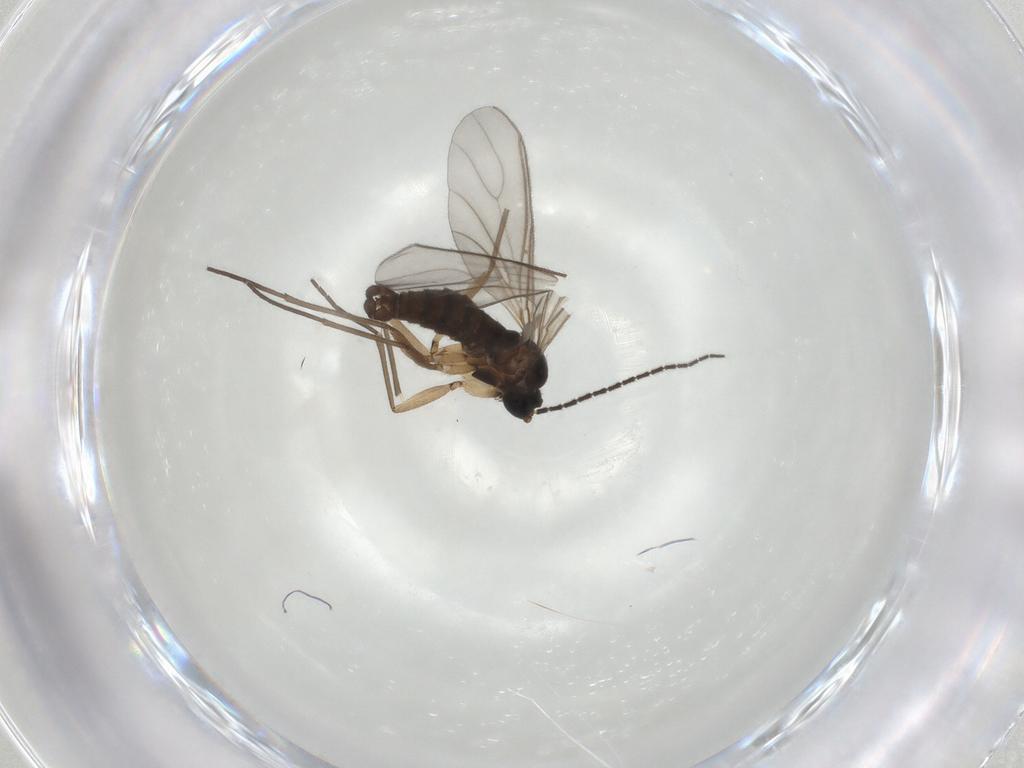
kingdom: Animalia
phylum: Arthropoda
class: Insecta
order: Diptera
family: Sciaridae
